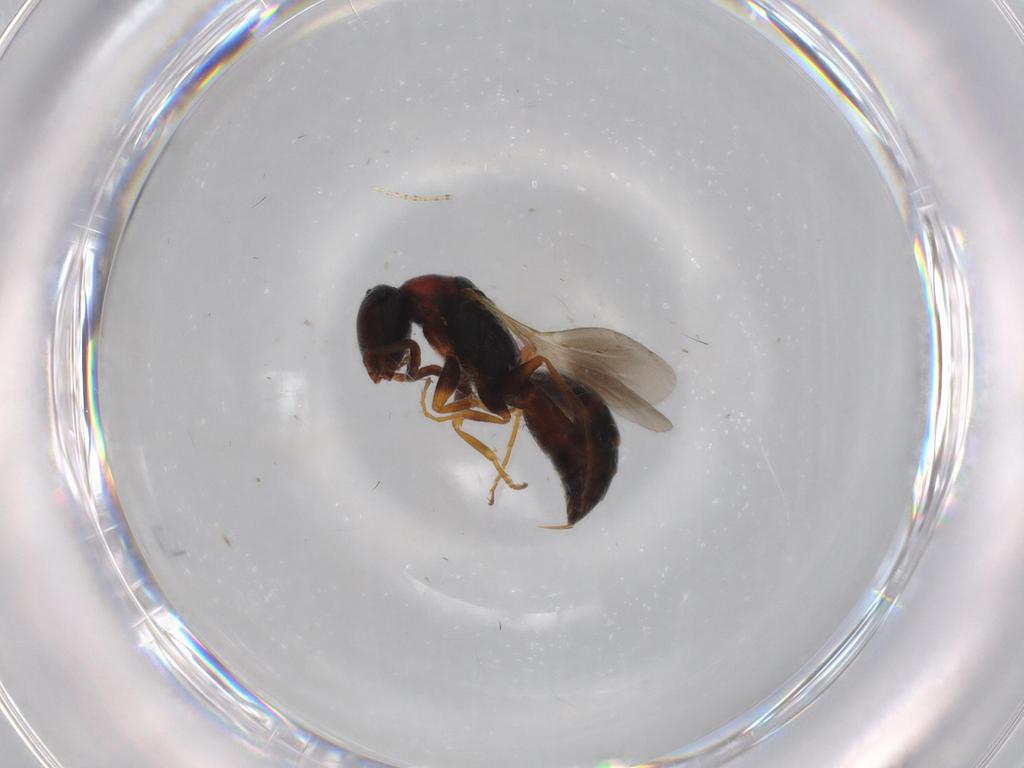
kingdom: Animalia
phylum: Arthropoda
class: Insecta
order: Hymenoptera
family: Bethylidae
